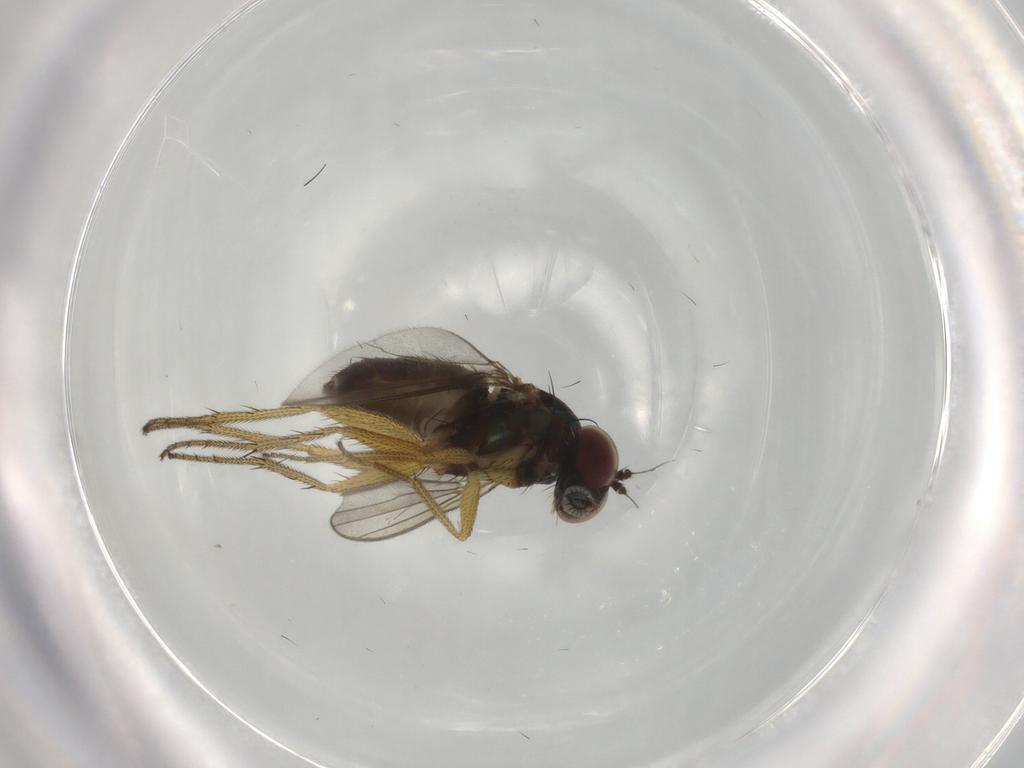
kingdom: Animalia
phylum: Arthropoda
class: Insecta
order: Diptera
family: Dolichopodidae
